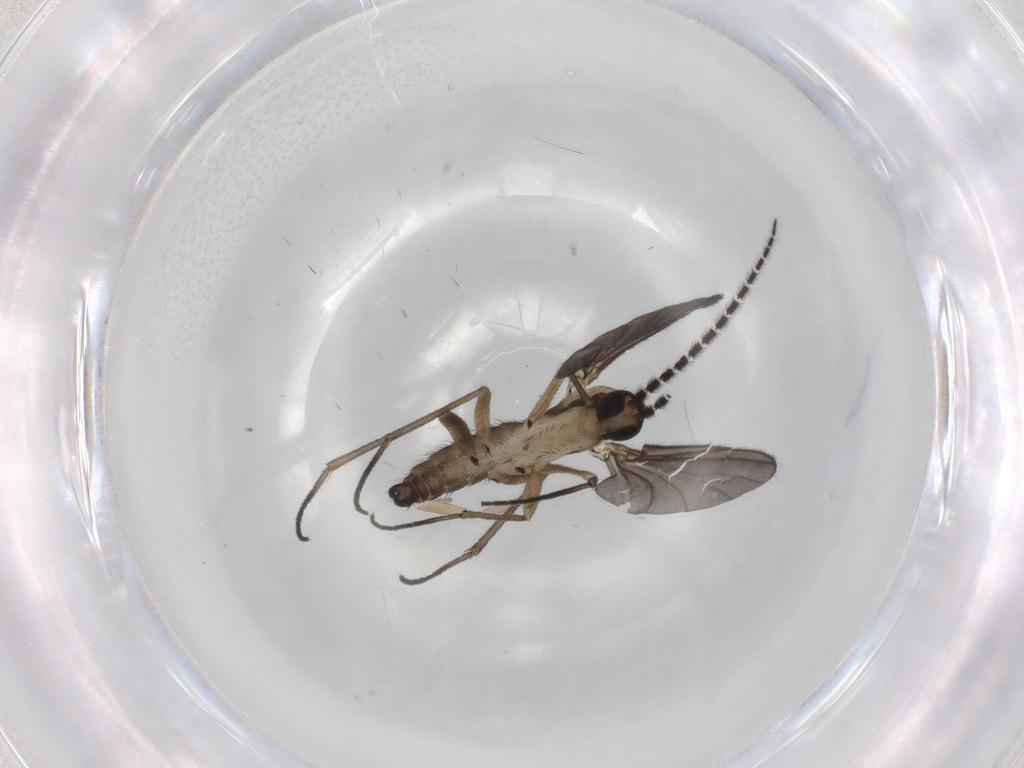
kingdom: Animalia
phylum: Arthropoda
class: Insecta
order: Diptera
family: Sciaridae
